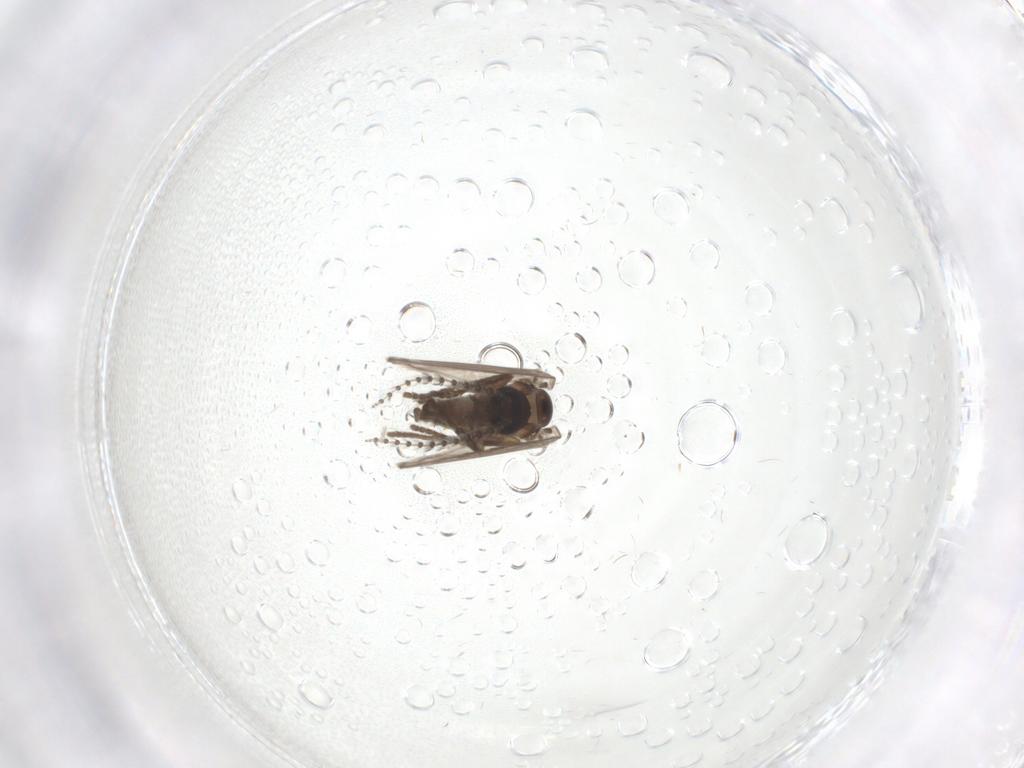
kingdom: Animalia
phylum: Arthropoda
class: Insecta
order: Diptera
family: Psychodidae
